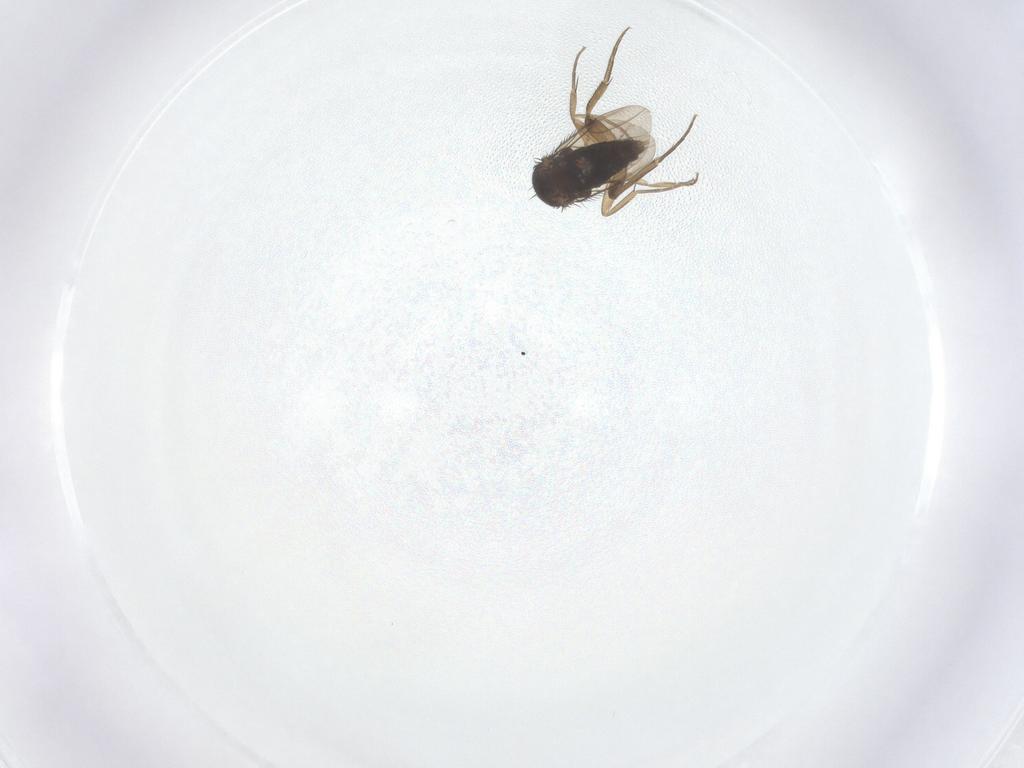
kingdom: Animalia
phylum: Arthropoda
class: Insecta
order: Diptera
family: Phoridae
